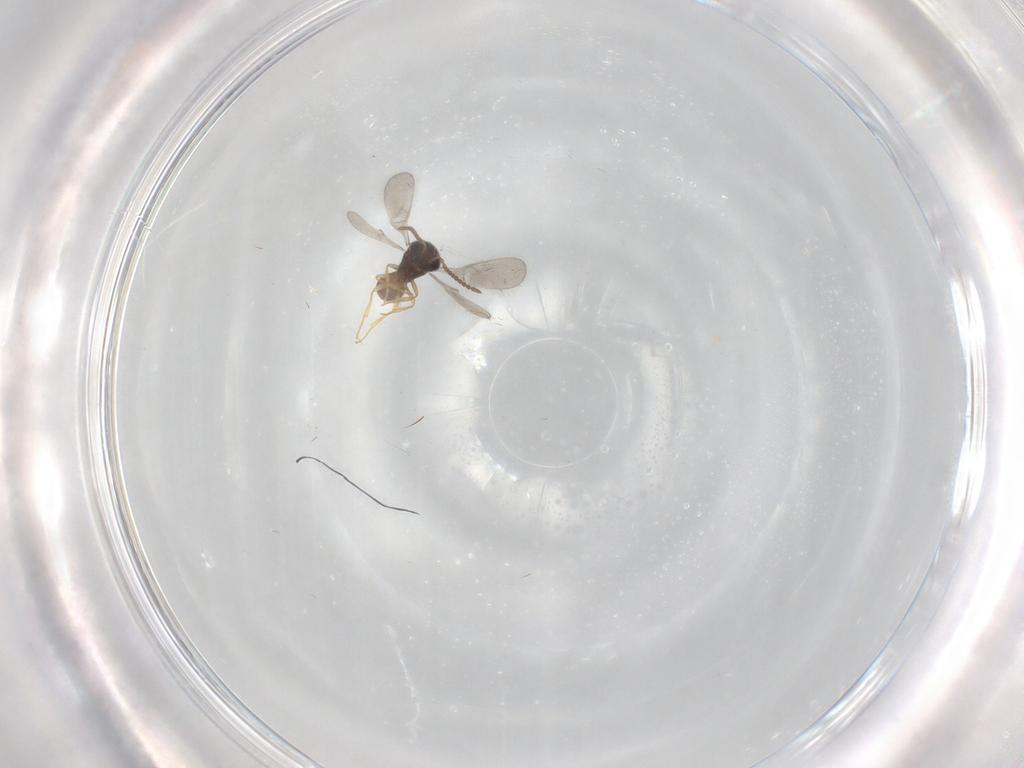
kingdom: Animalia
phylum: Arthropoda
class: Insecta
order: Hymenoptera
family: Scelionidae
